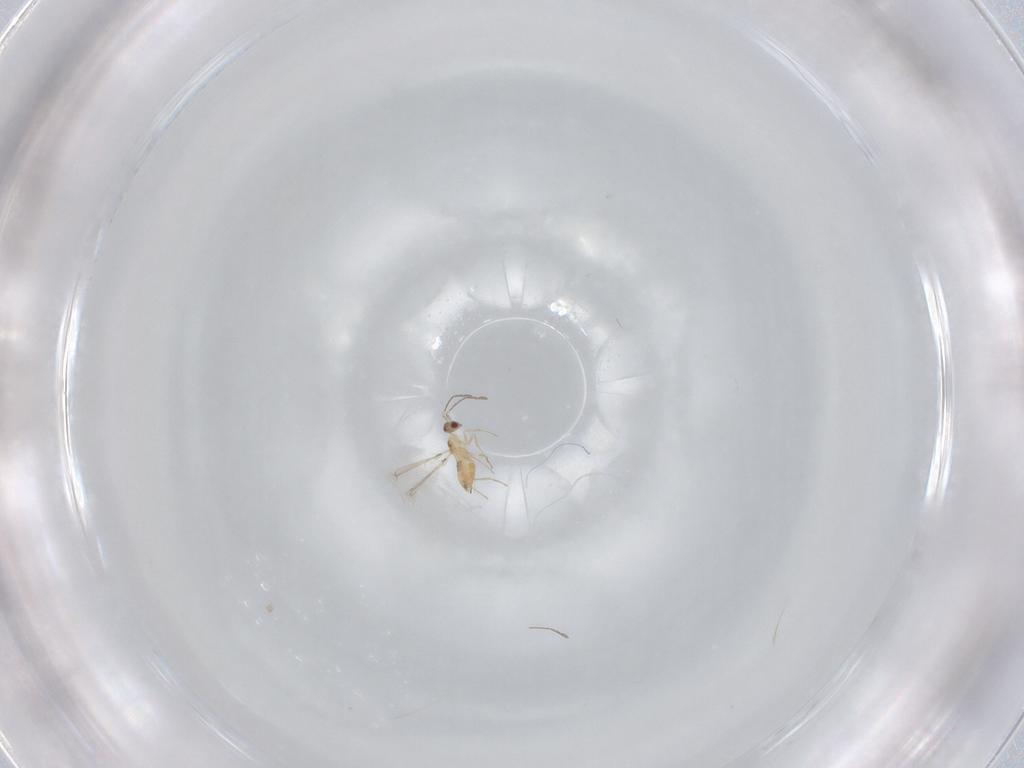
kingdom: Animalia
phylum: Arthropoda
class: Insecta
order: Hymenoptera
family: Mymaridae
